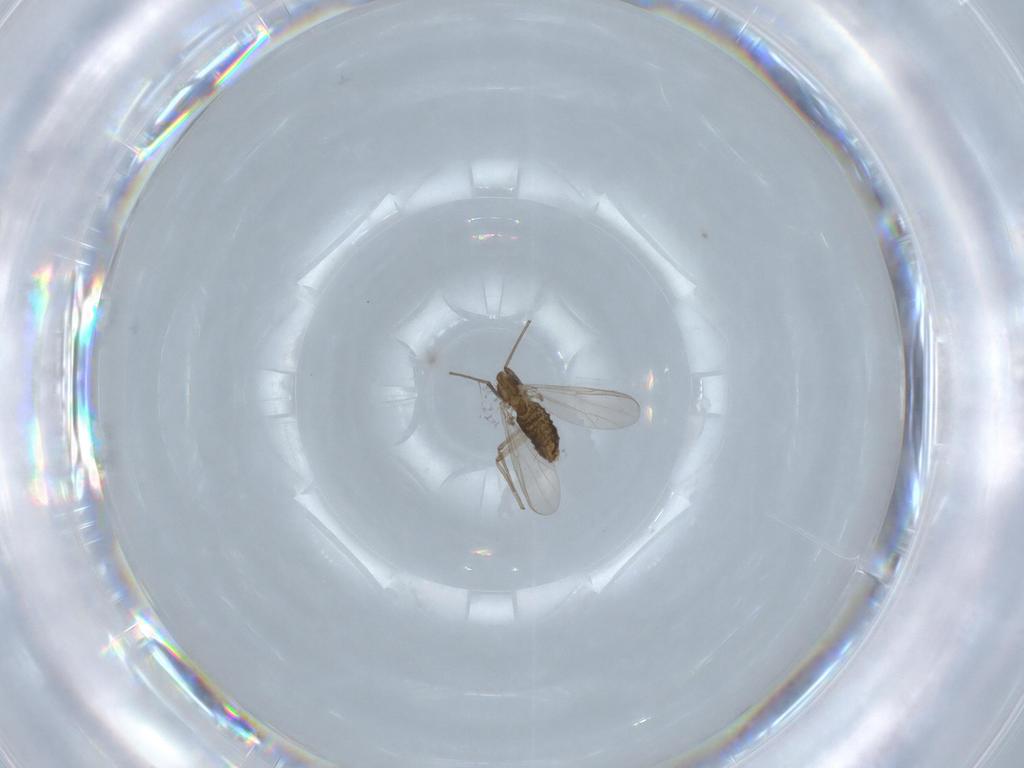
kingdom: Animalia
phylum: Arthropoda
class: Insecta
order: Diptera
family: Chironomidae
